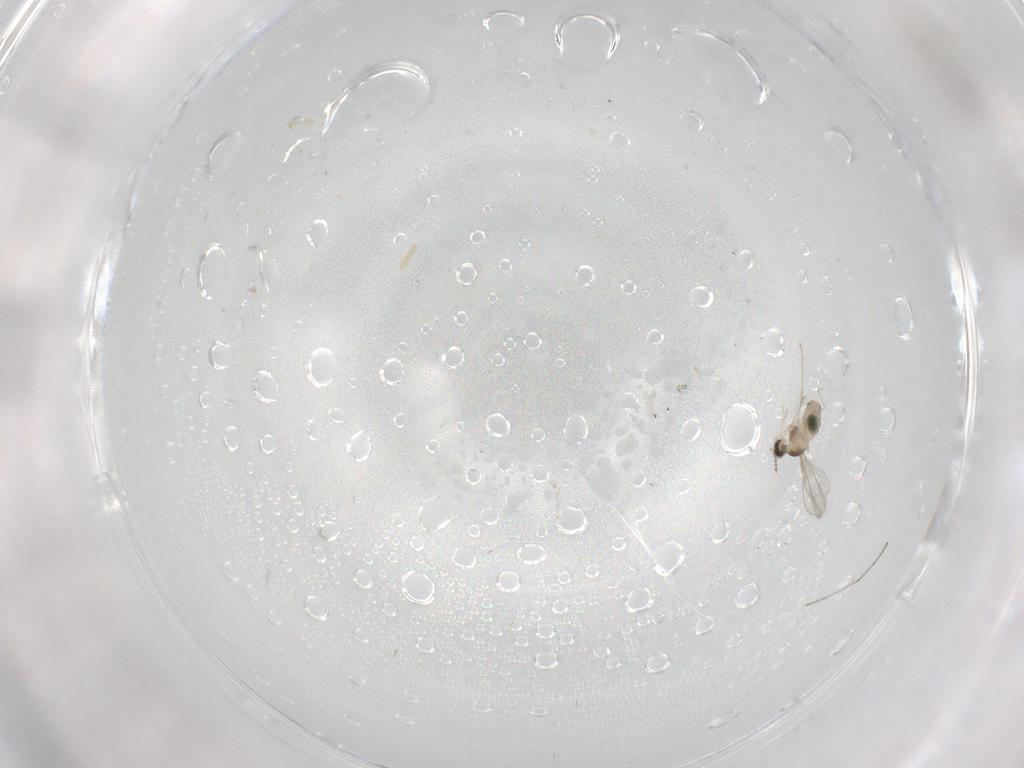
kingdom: Animalia
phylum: Arthropoda
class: Insecta
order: Diptera
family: Cecidomyiidae
